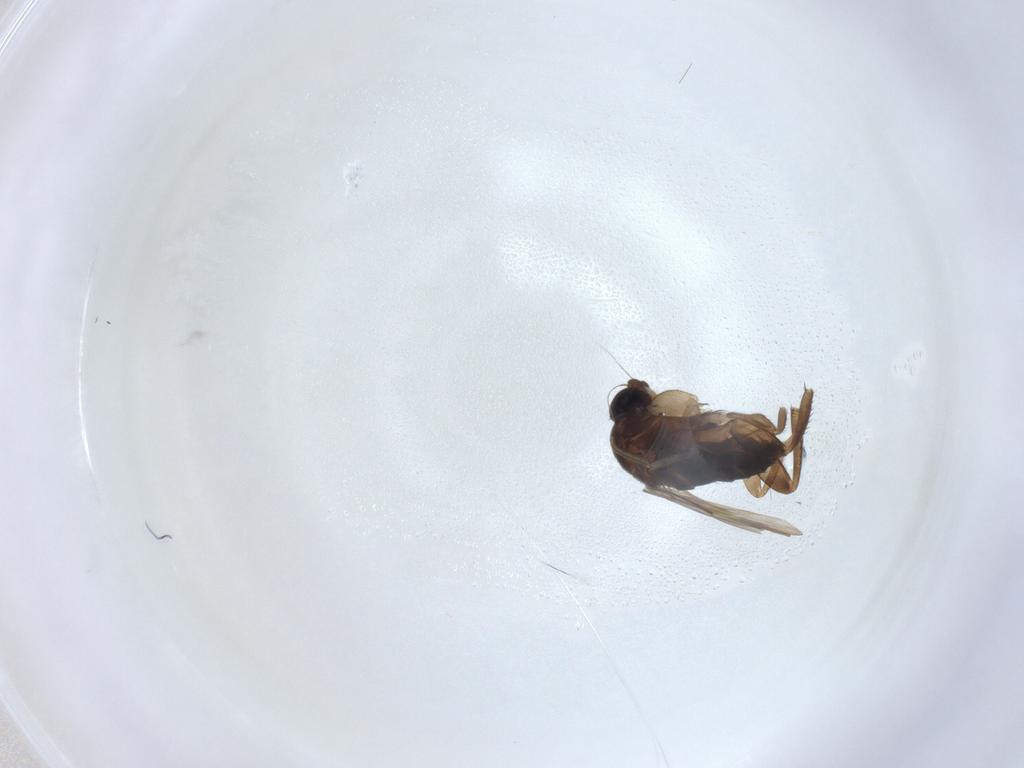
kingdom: Animalia
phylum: Arthropoda
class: Insecta
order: Diptera
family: Phoridae
